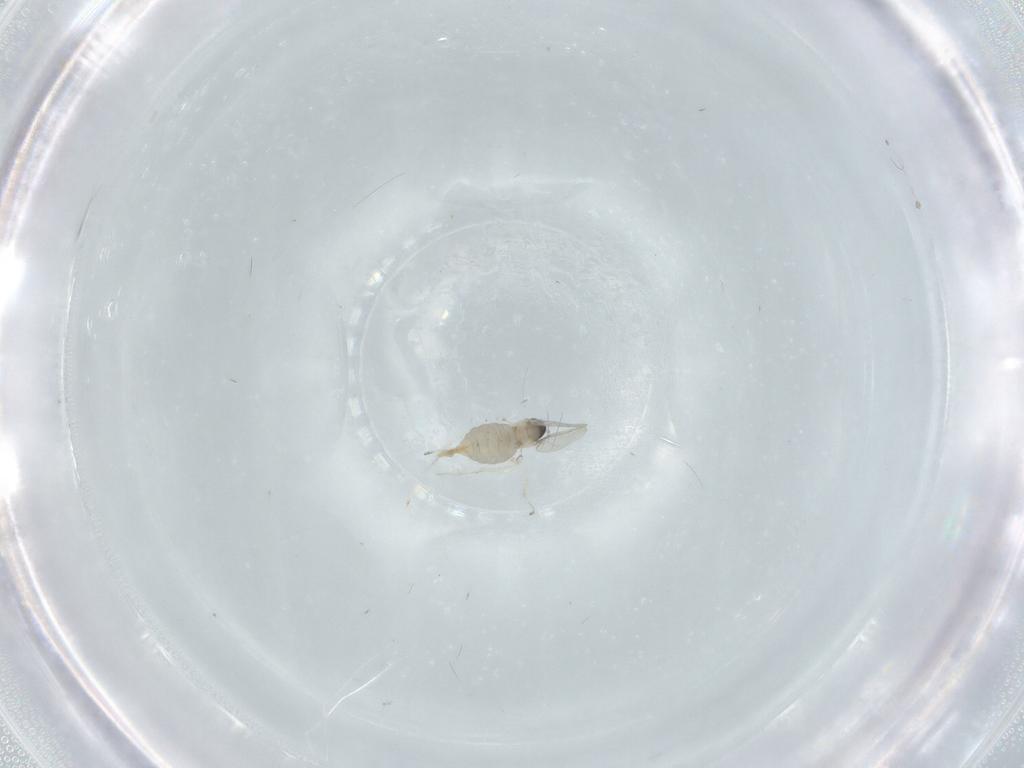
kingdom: Animalia
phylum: Arthropoda
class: Insecta
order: Diptera
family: Cecidomyiidae
